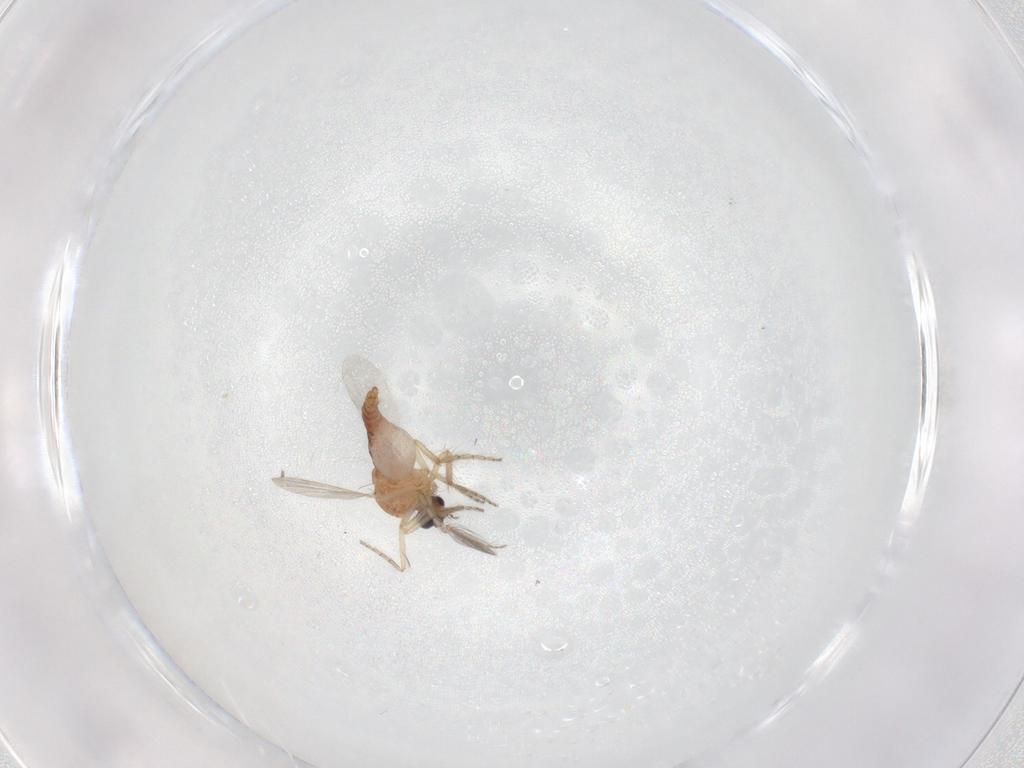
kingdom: Animalia
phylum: Arthropoda
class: Insecta
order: Diptera
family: Ceratopogonidae
